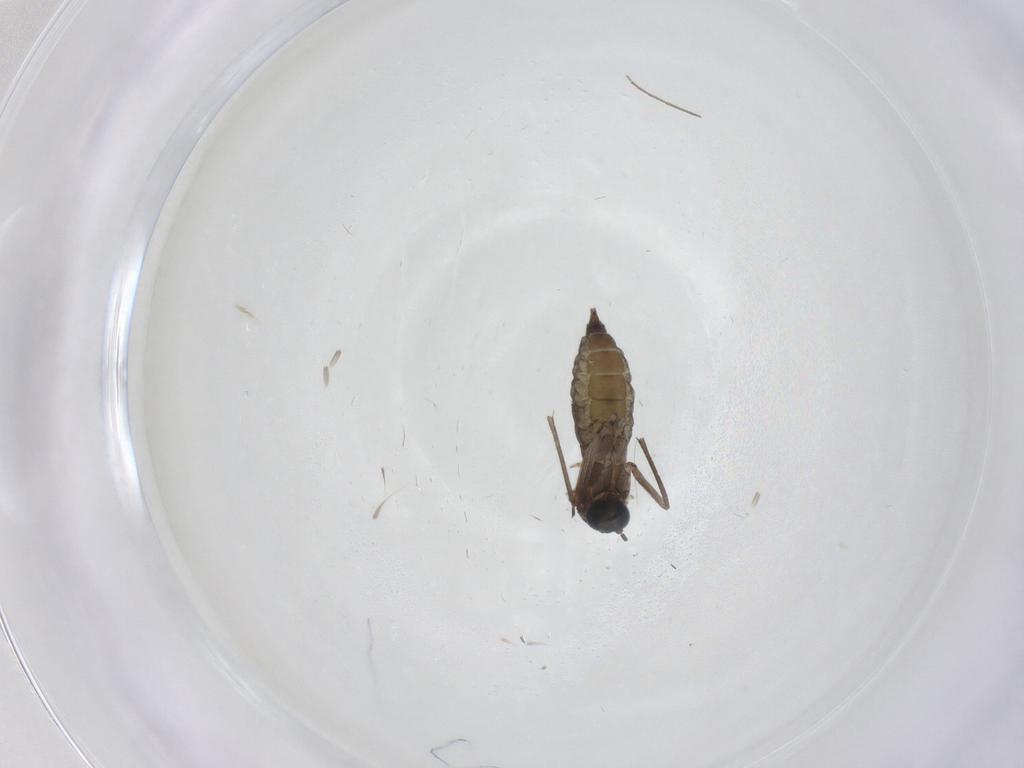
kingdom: Animalia
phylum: Arthropoda
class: Insecta
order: Diptera
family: Sciaridae
